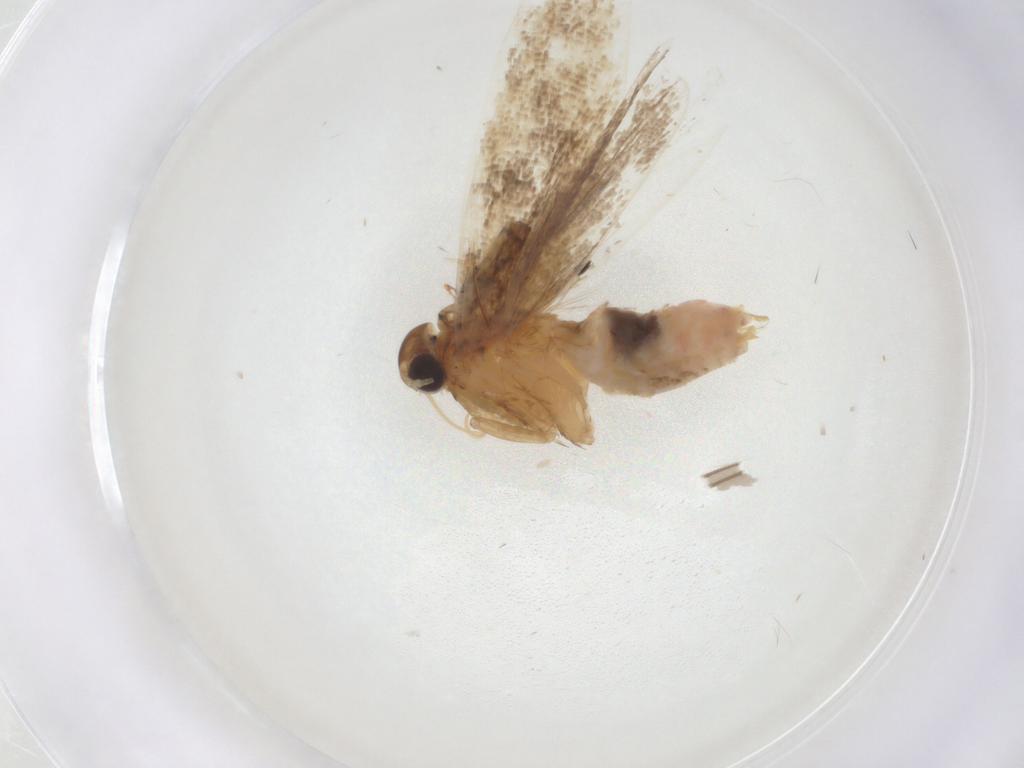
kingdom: Animalia
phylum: Arthropoda
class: Insecta
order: Lepidoptera
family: Gelechiidae
